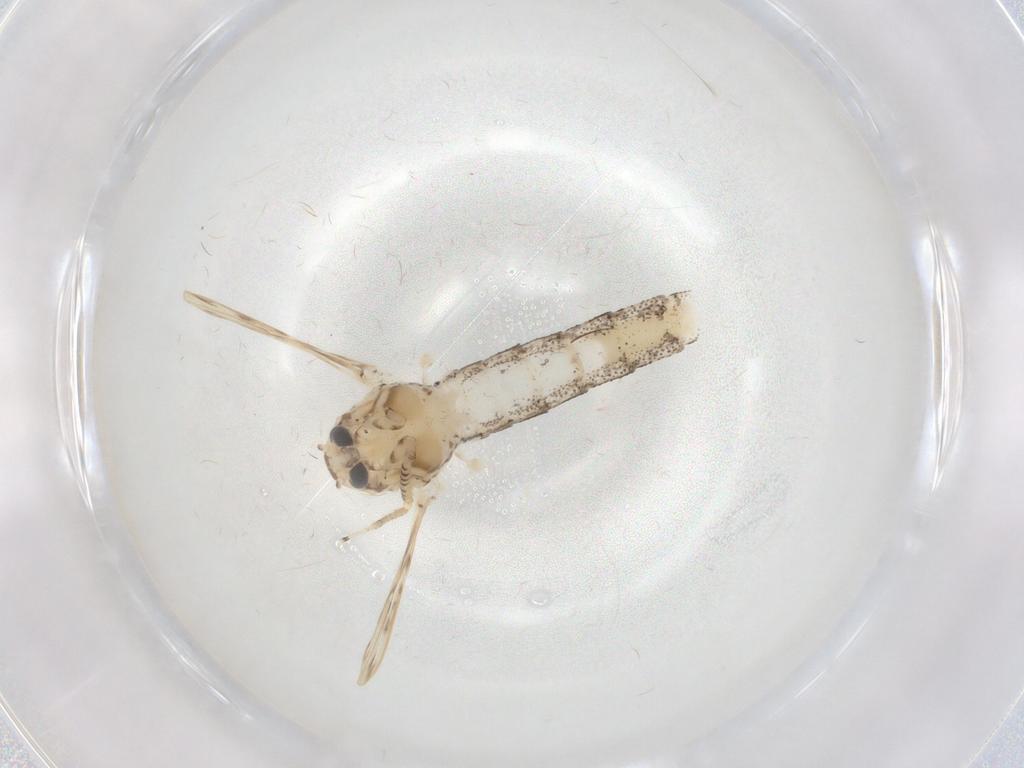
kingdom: Animalia
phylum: Arthropoda
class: Insecta
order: Diptera
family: Chaoboridae
